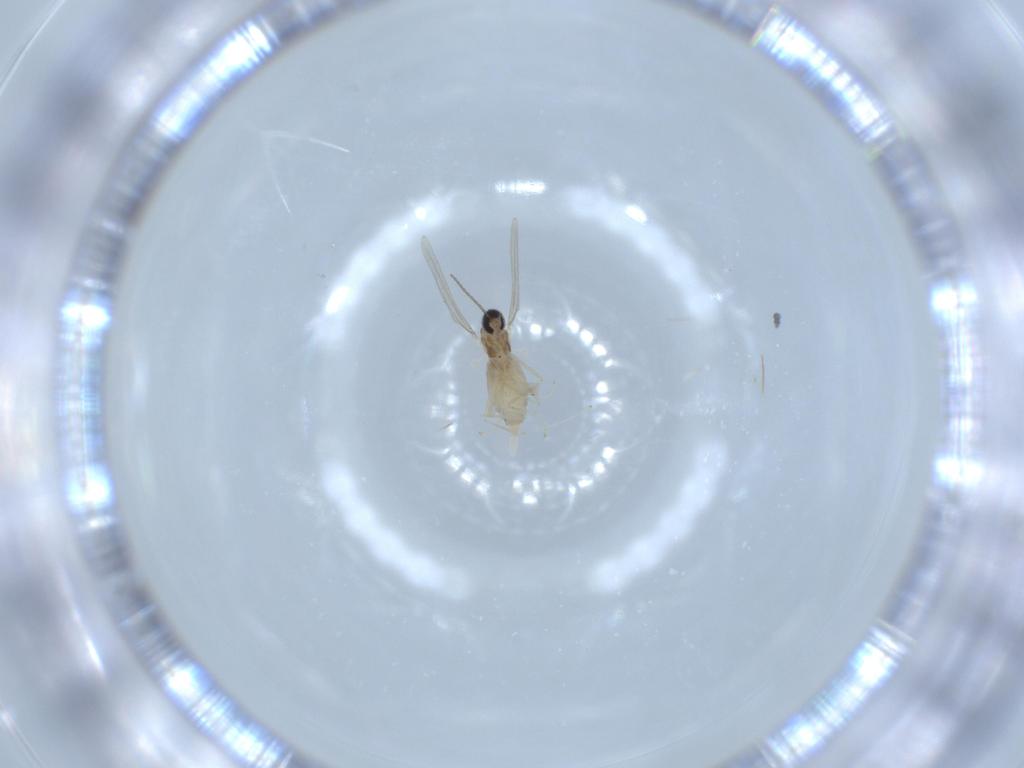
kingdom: Animalia
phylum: Arthropoda
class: Insecta
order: Diptera
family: Cecidomyiidae
